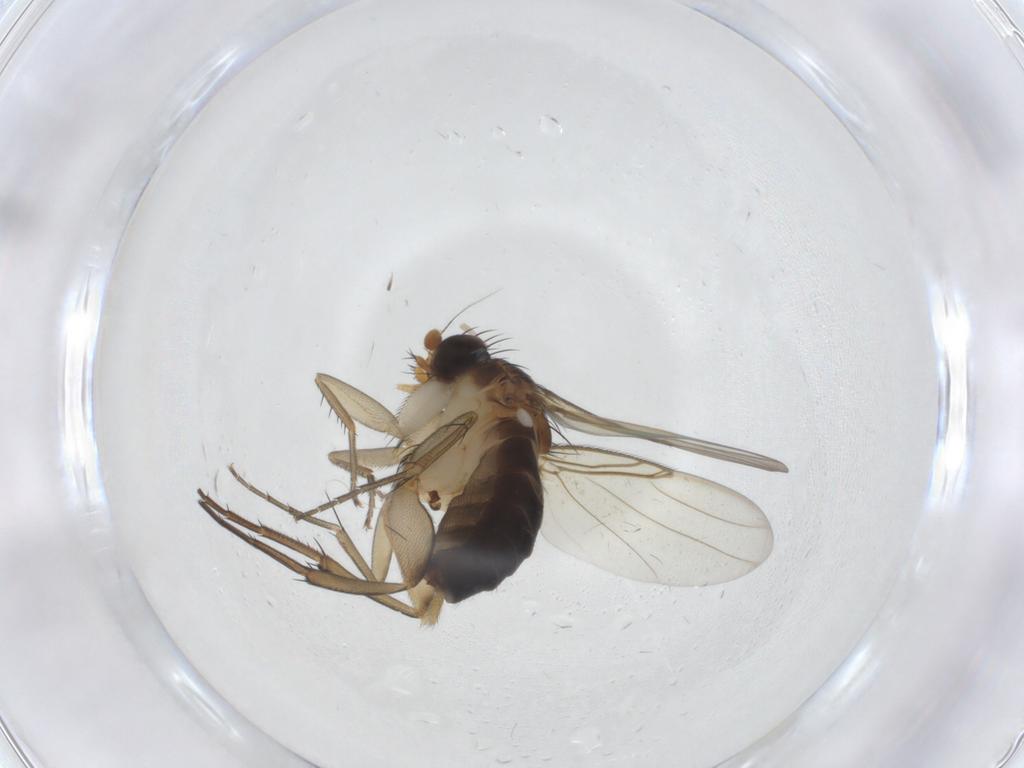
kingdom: Animalia
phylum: Arthropoda
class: Insecta
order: Diptera
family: Phoridae
